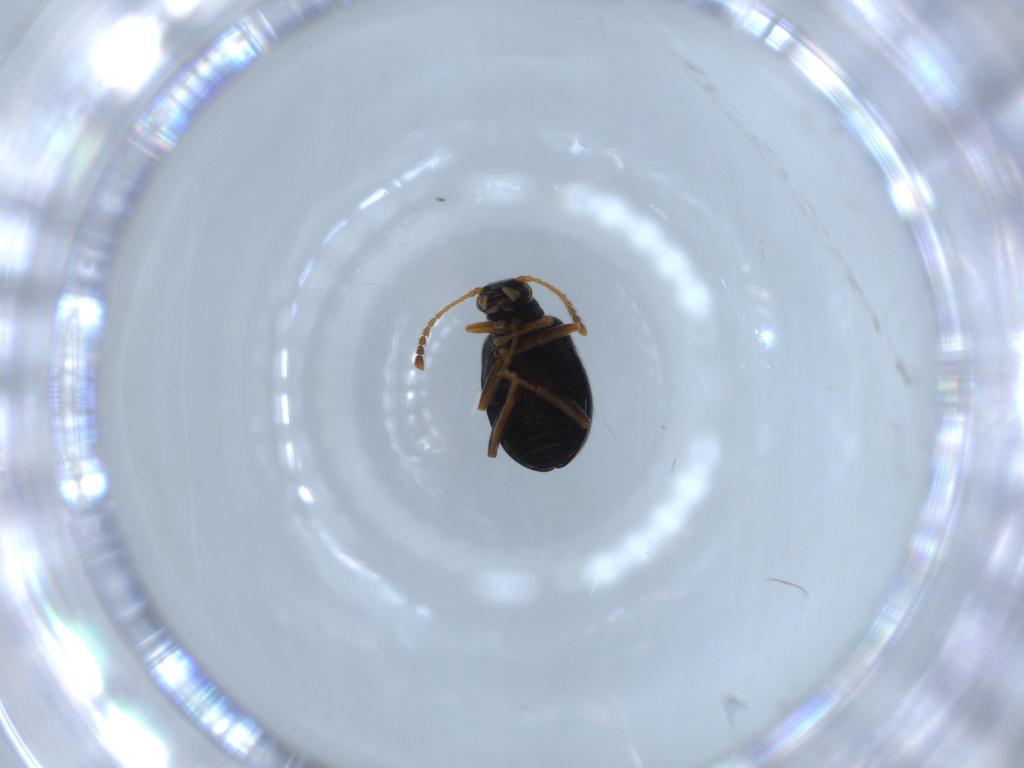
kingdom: Animalia
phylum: Arthropoda
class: Insecta
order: Coleoptera
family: Aderidae
